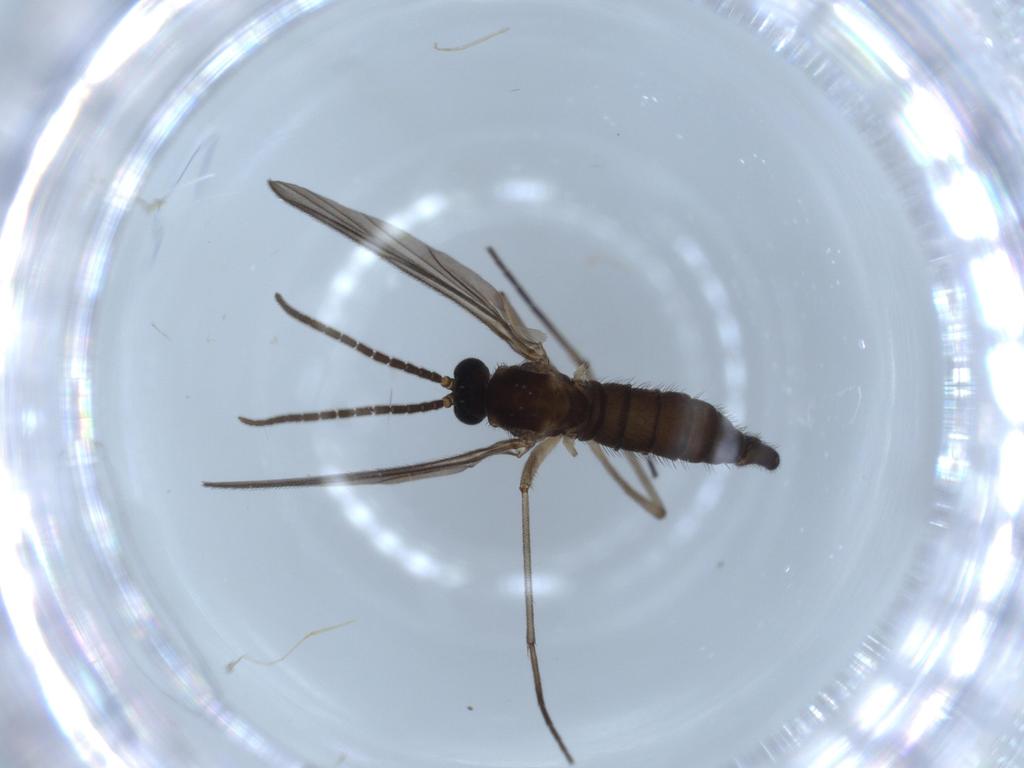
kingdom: Animalia
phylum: Arthropoda
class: Insecta
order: Diptera
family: Sciaridae
